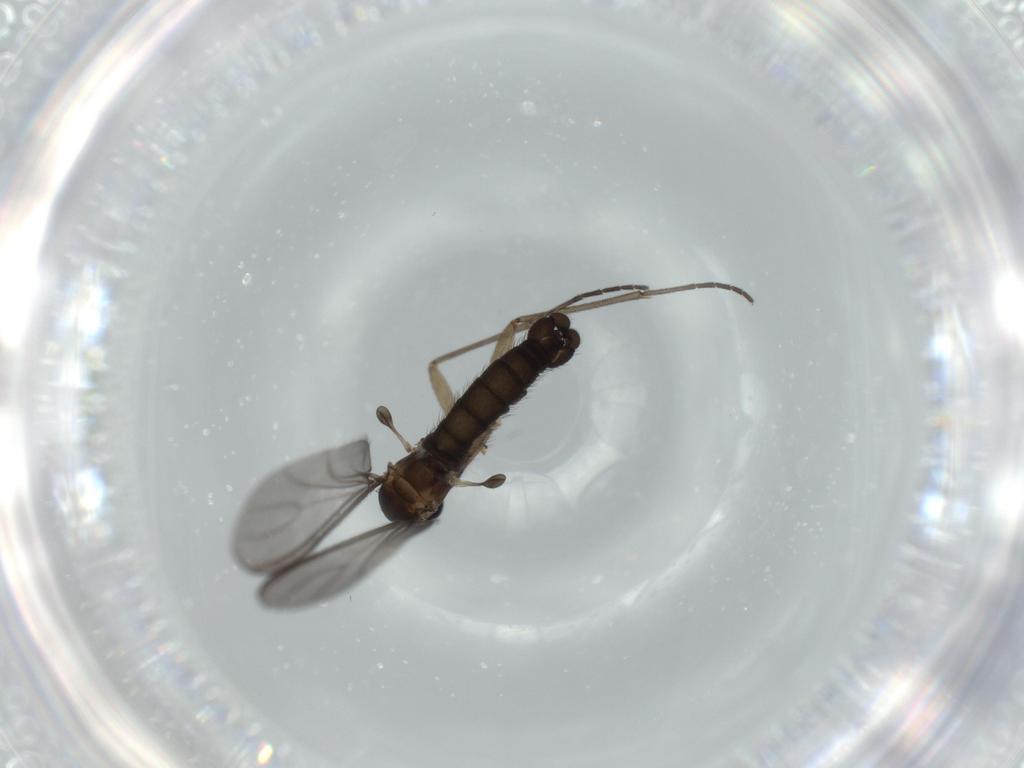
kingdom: Animalia
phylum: Arthropoda
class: Insecta
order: Diptera
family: Sciaridae
